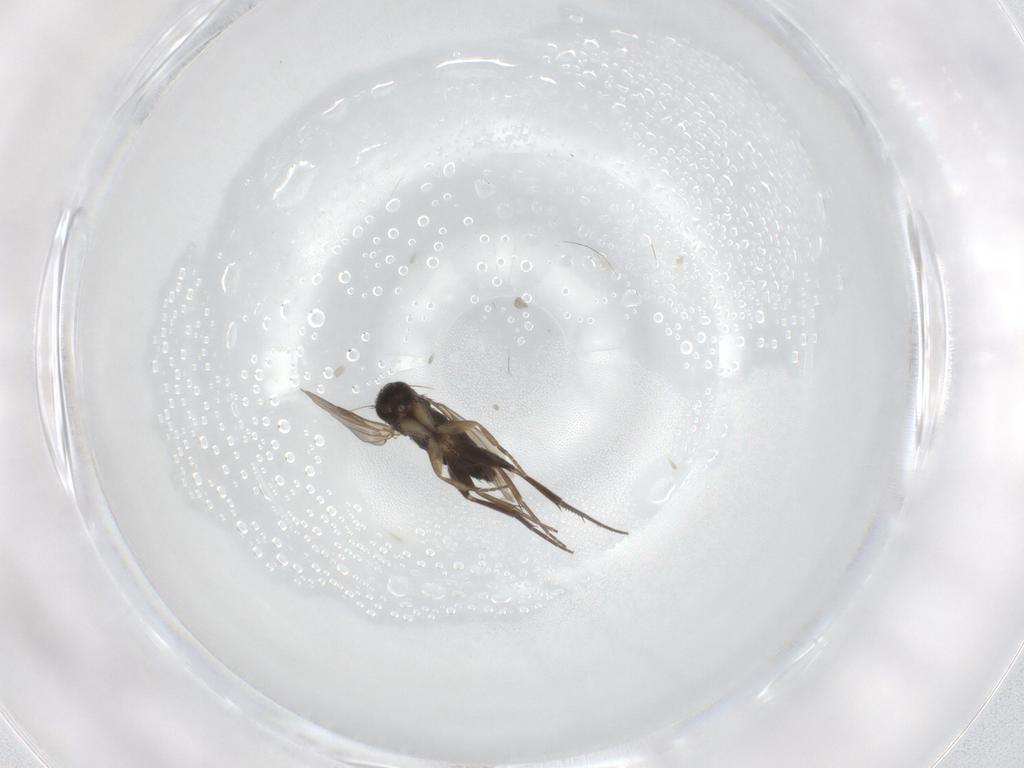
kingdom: Animalia
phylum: Arthropoda
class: Insecta
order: Diptera
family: Phoridae
